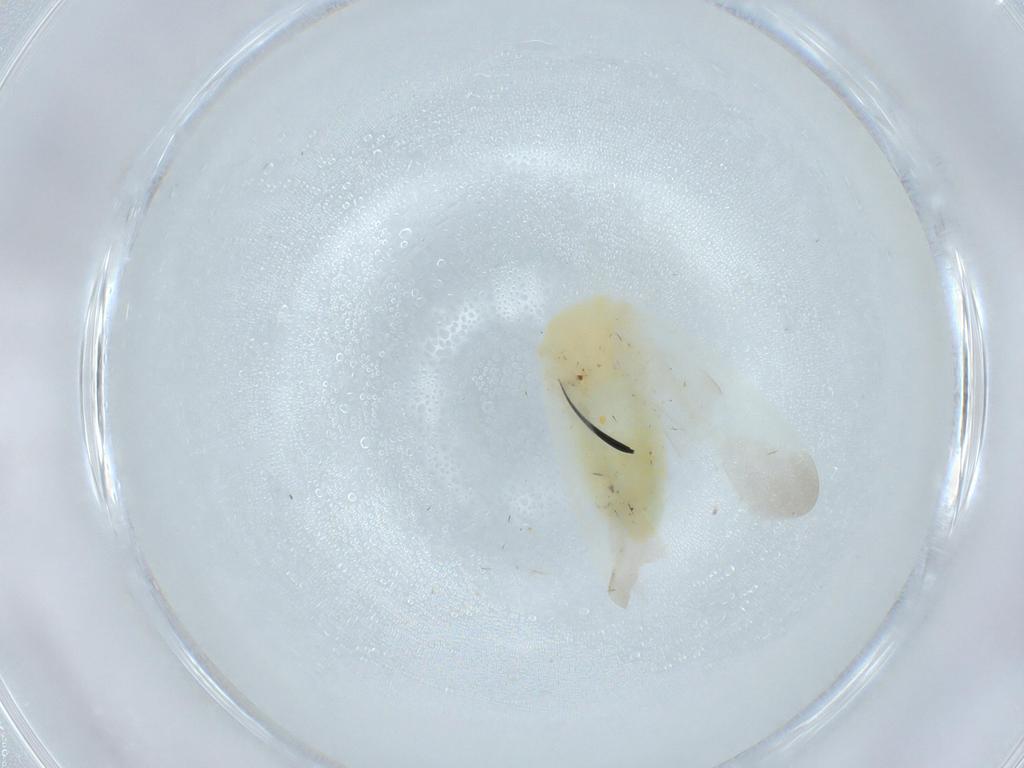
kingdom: Animalia
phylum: Arthropoda
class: Insecta
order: Hemiptera
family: Miridae
